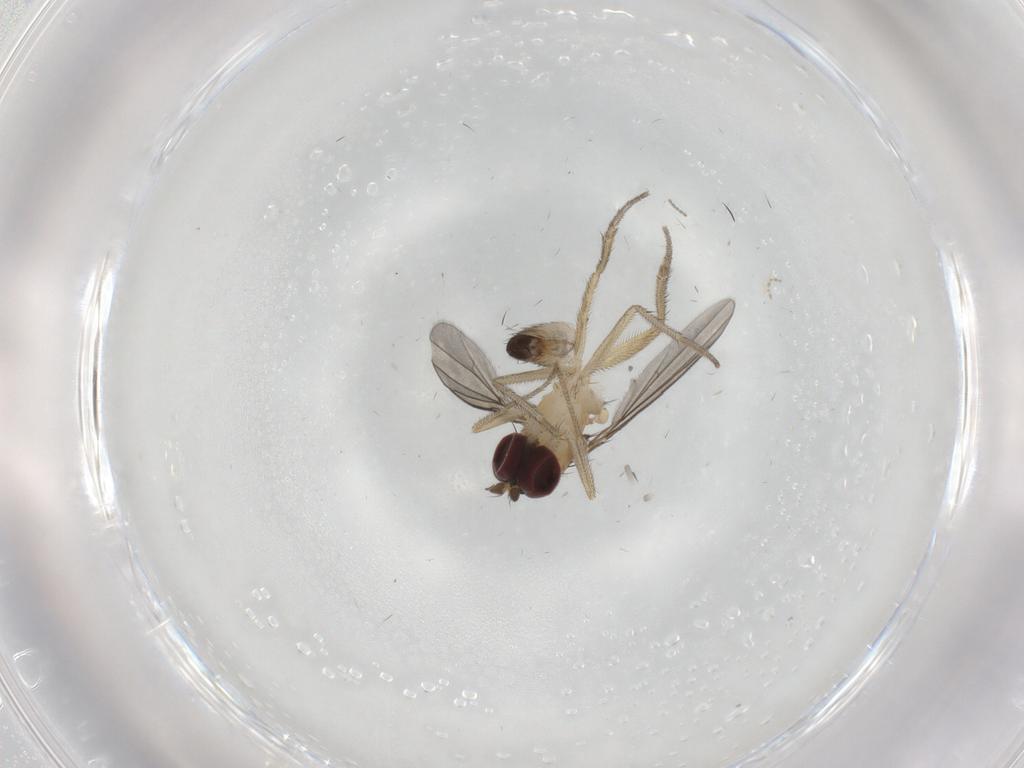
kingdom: Animalia
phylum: Arthropoda
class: Insecta
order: Diptera
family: Dolichopodidae
